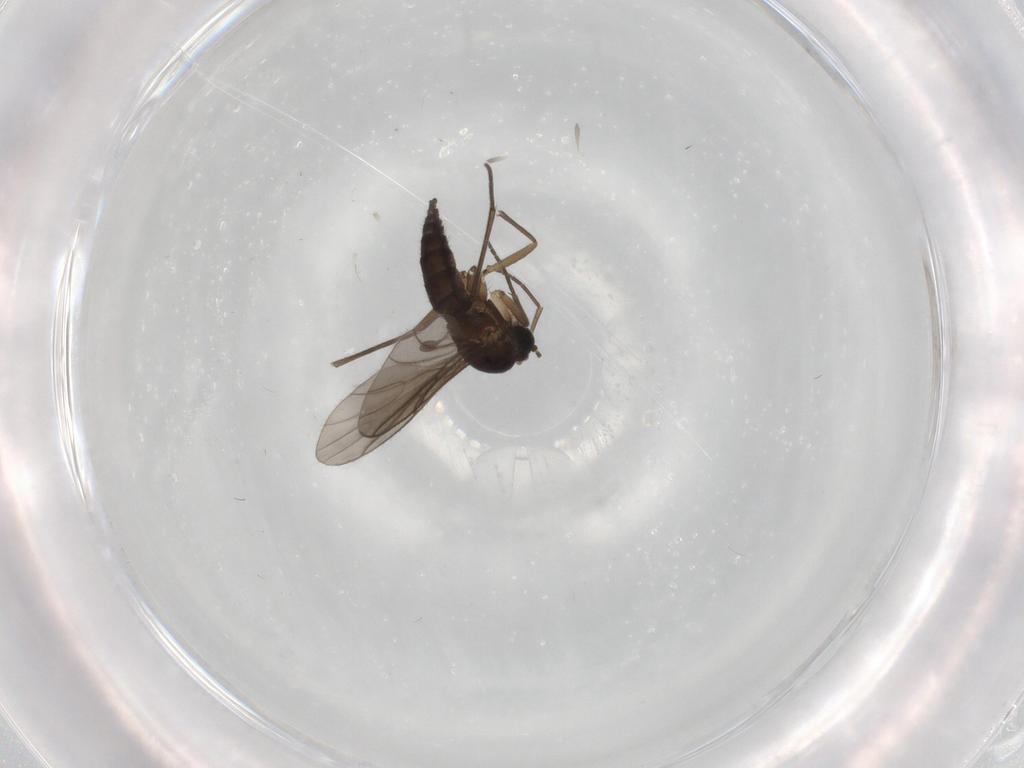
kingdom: Animalia
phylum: Arthropoda
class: Insecta
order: Diptera
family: Sciaridae
